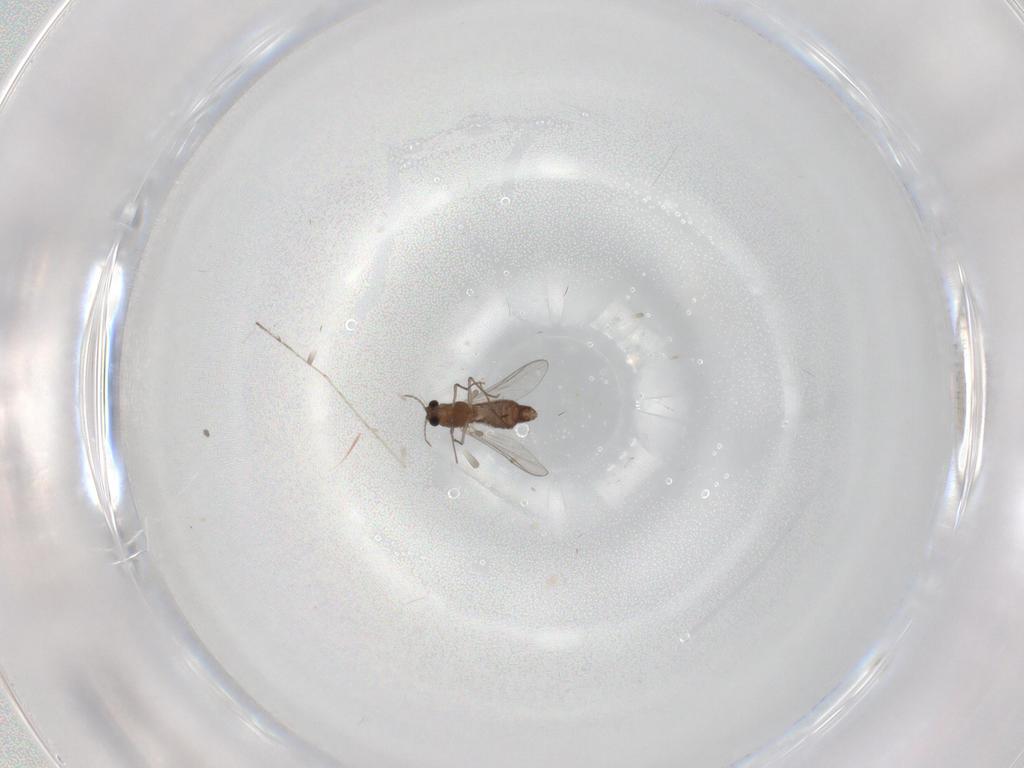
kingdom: Animalia
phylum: Arthropoda
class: Insecta
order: Diptera
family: Chironomidae
